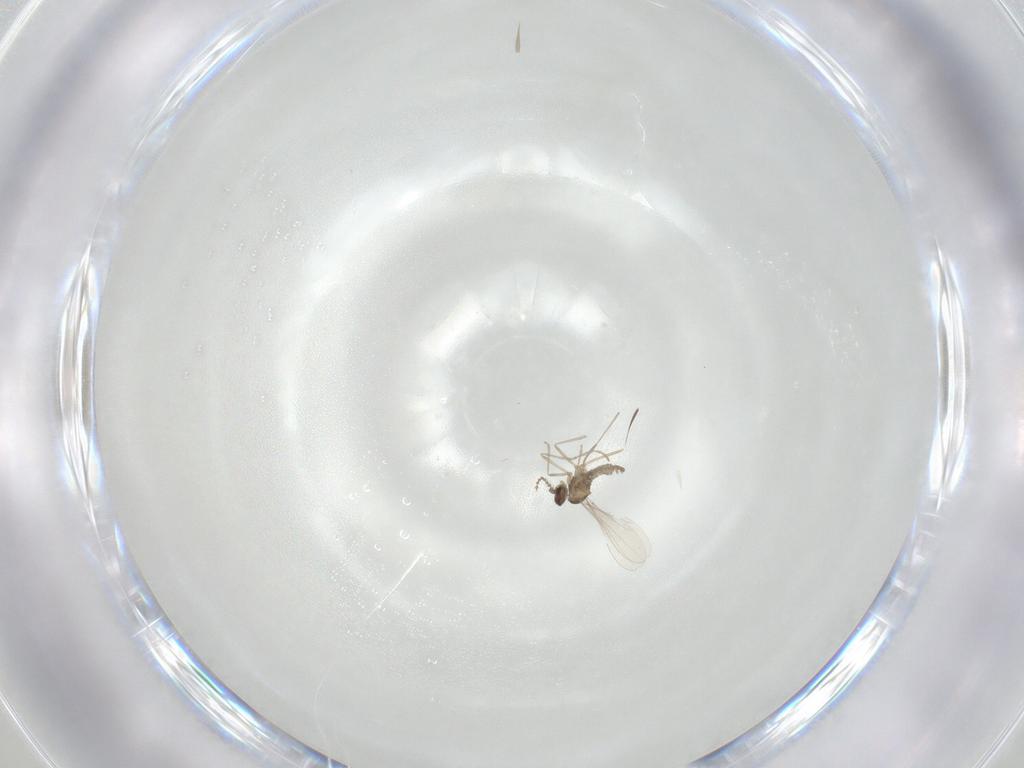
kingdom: Animalia
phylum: Arthropoda
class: Insecta
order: Diptera
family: Cecidomyiidae
